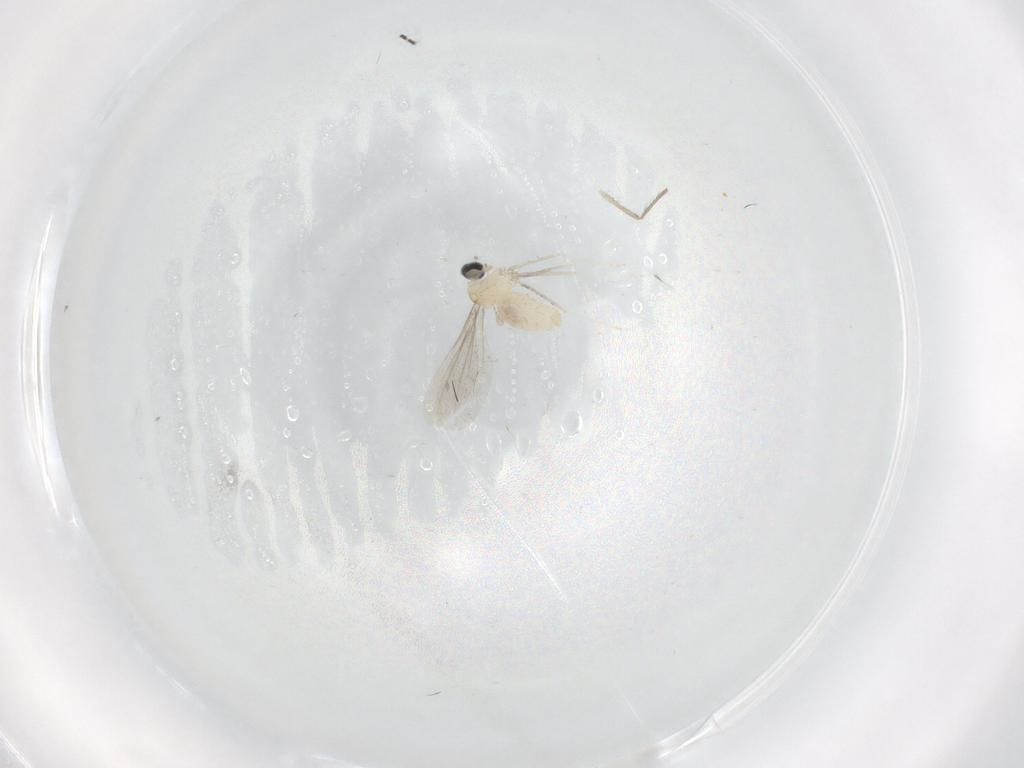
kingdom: Animalia
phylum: Arthropoda
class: Insecta
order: Diptera
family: Cecidomyiidae
